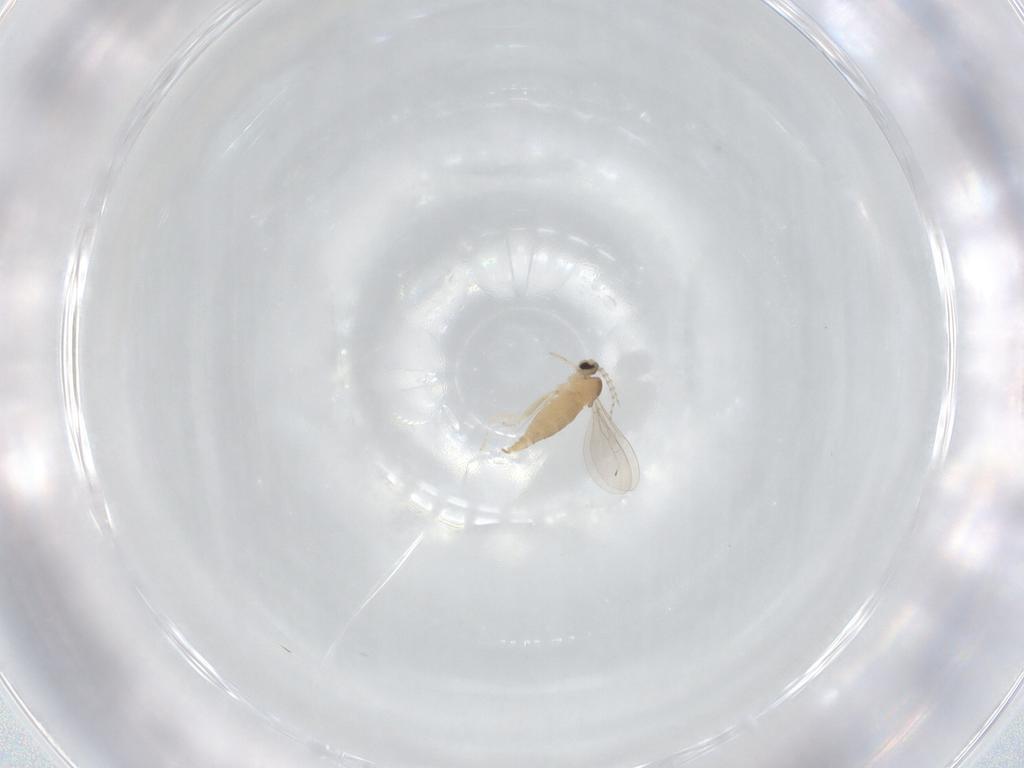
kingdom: Animalia
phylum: Arthropoda
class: Insecta
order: Diptera
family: Cecidomyiidae
